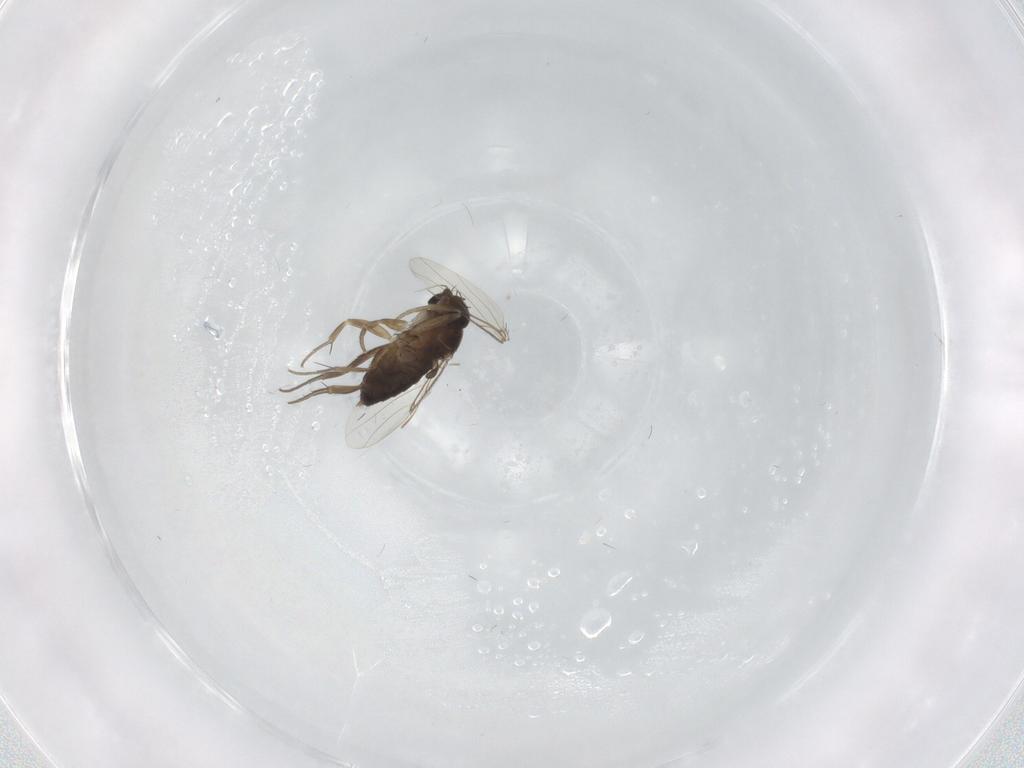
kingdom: Animalia
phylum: Arthropoda
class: Insecta
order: Diptera
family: Phoridae
